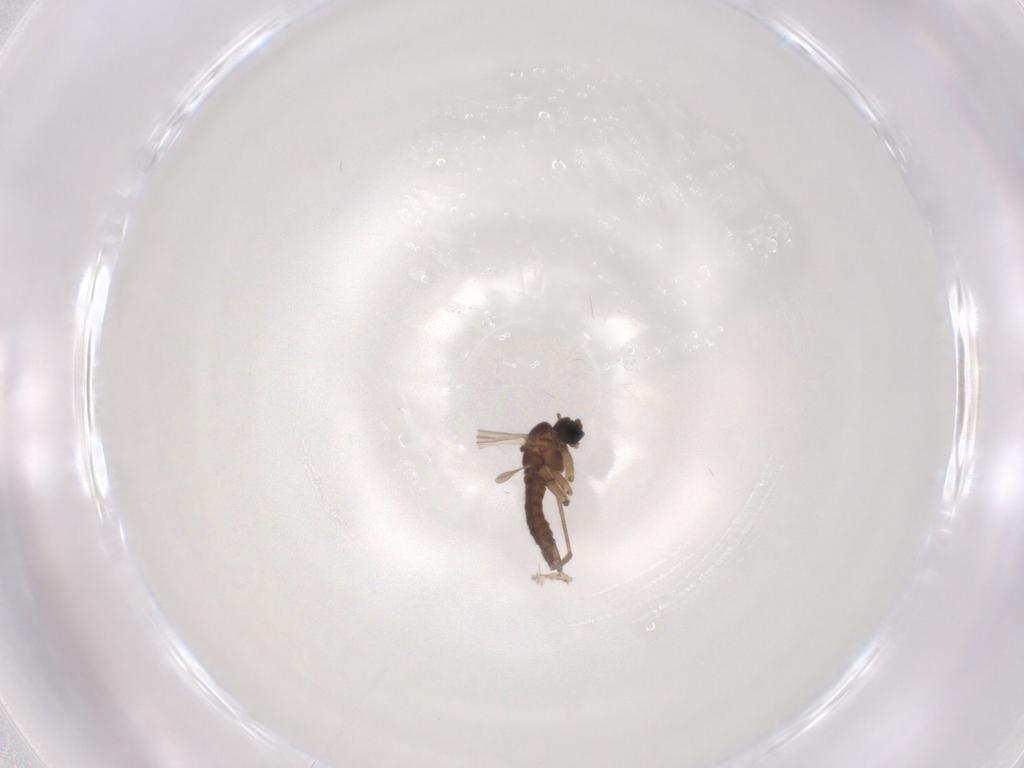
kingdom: Animalia
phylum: Arthropoda
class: Insecta
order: Diptera
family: Sciaridae
